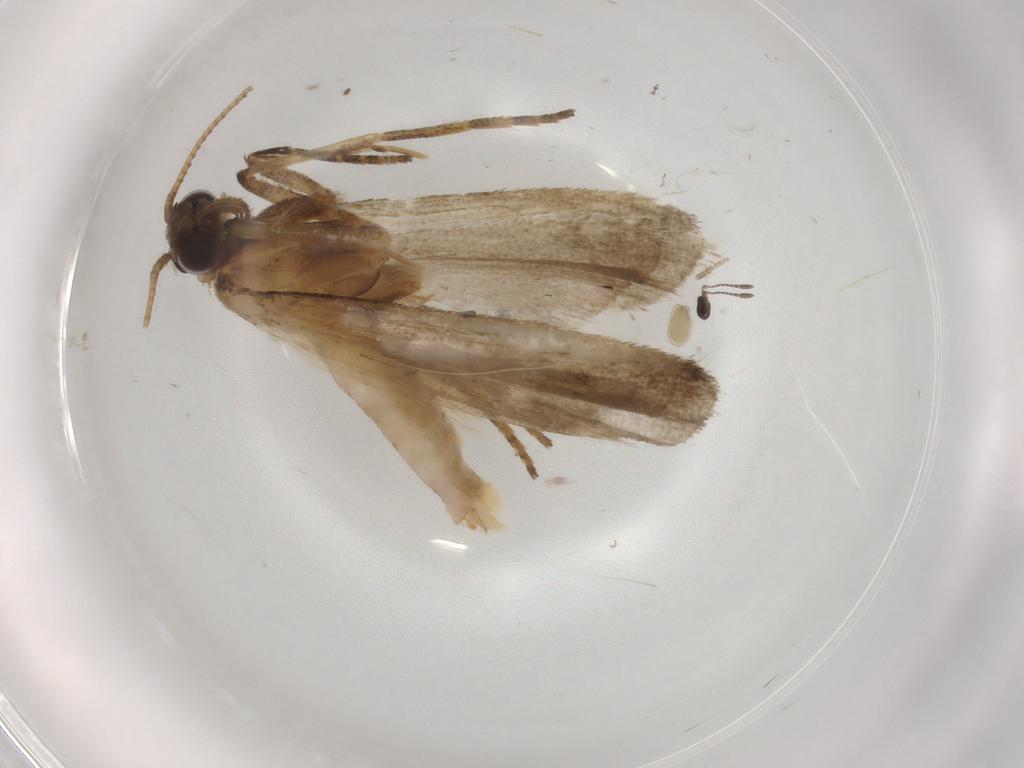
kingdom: Animalia
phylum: Arthropoda
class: Insecta
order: Lepidoptera
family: Noctuidae
